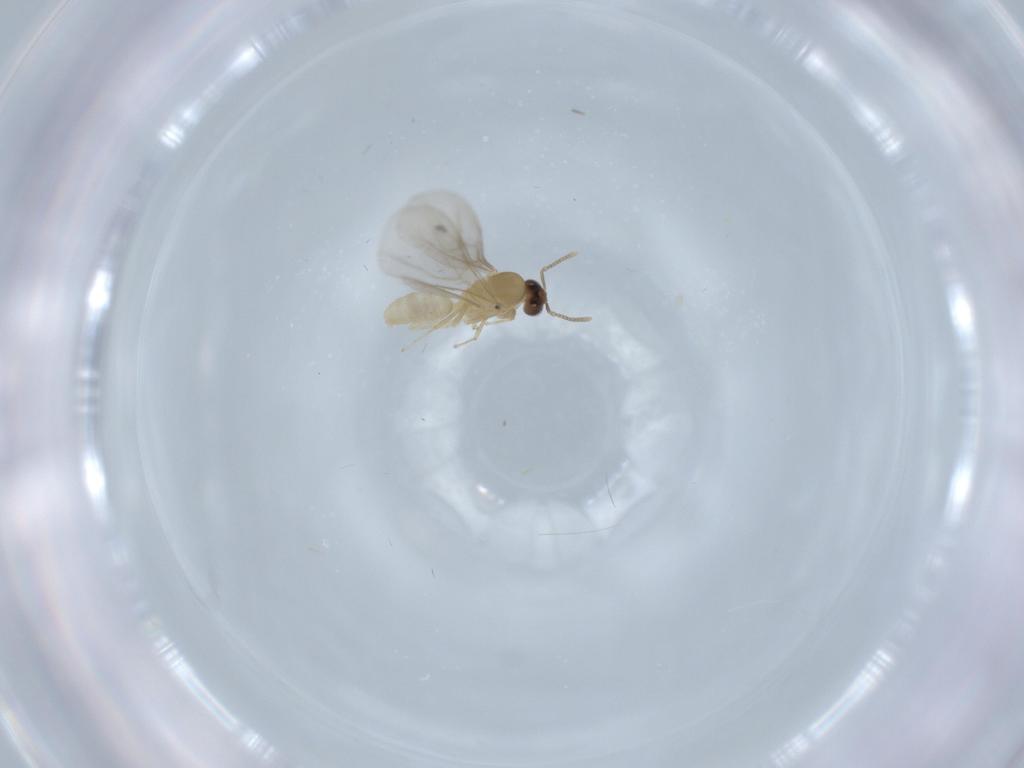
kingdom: Animalia
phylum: Arthropoda
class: Insecta
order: Hymenoptera
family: Formicidae
